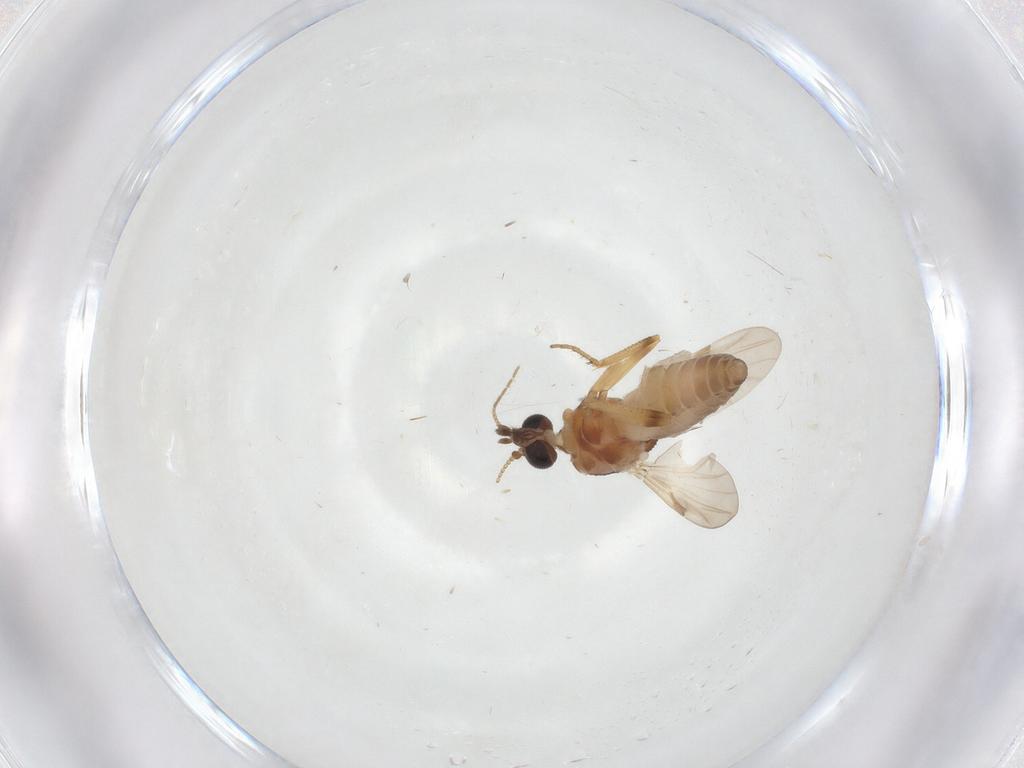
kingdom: Animalia
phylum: Arthropoda
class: Insecta
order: Diptera
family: Ceratopogonidae
